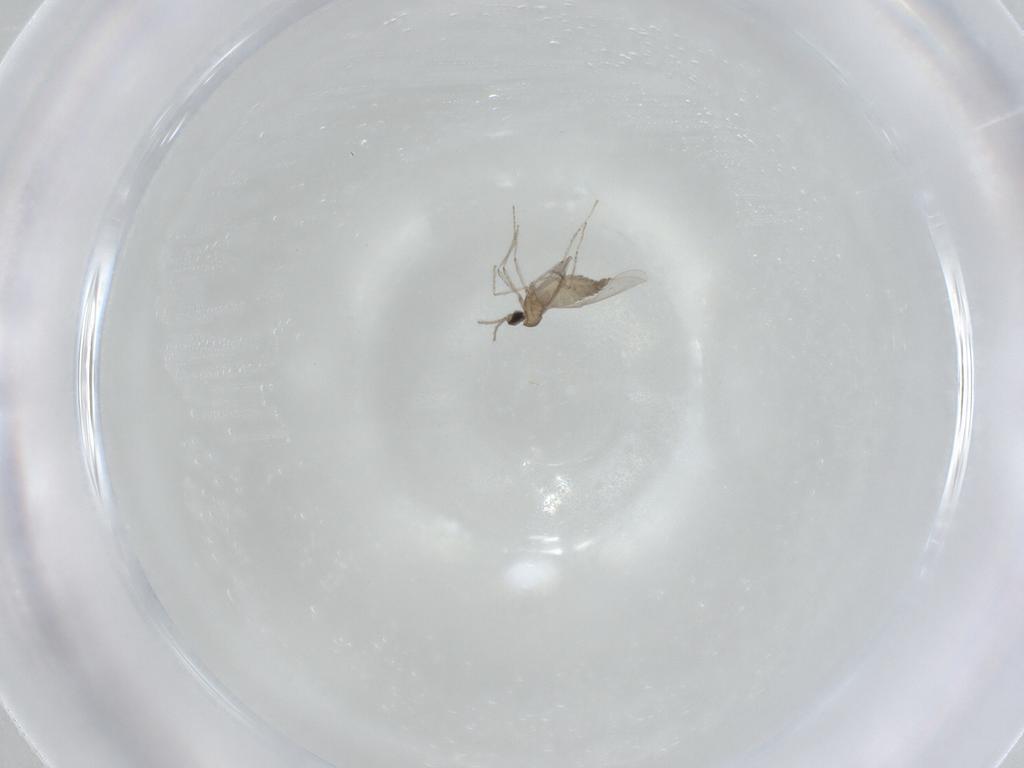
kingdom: Animalia
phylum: Arthropoda
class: Insecta
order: Diptera
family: Cecidomyiidae
